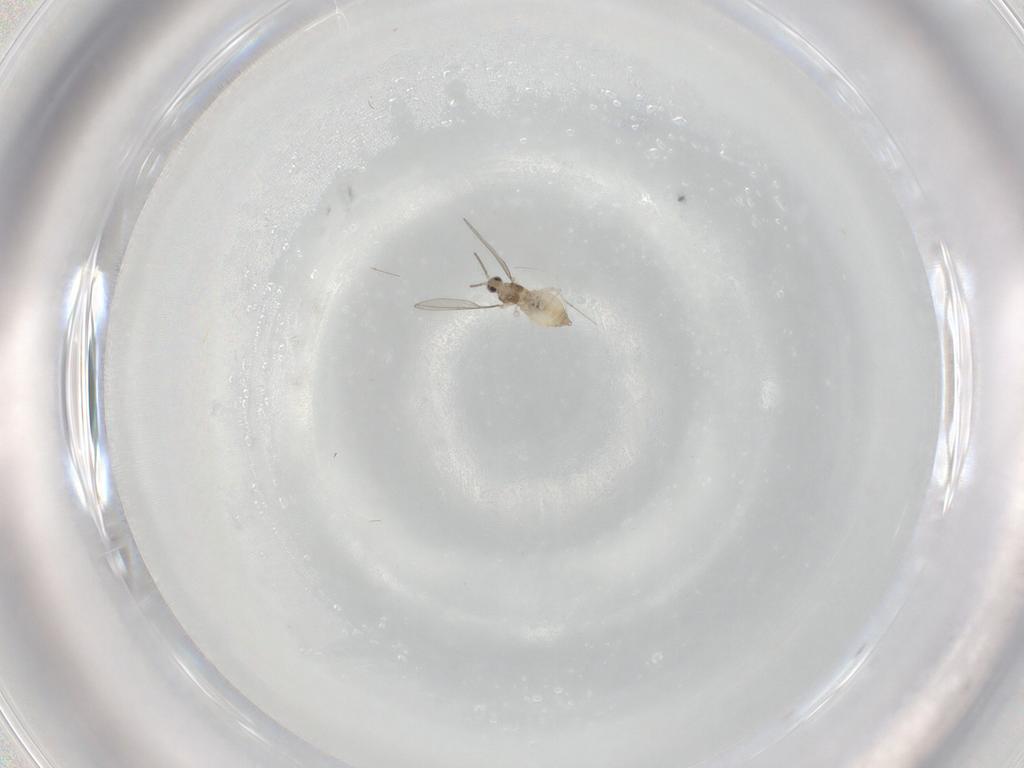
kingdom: Animalia
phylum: Arthropoda
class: Insecta
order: Diptera
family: Cecidomyiidae
